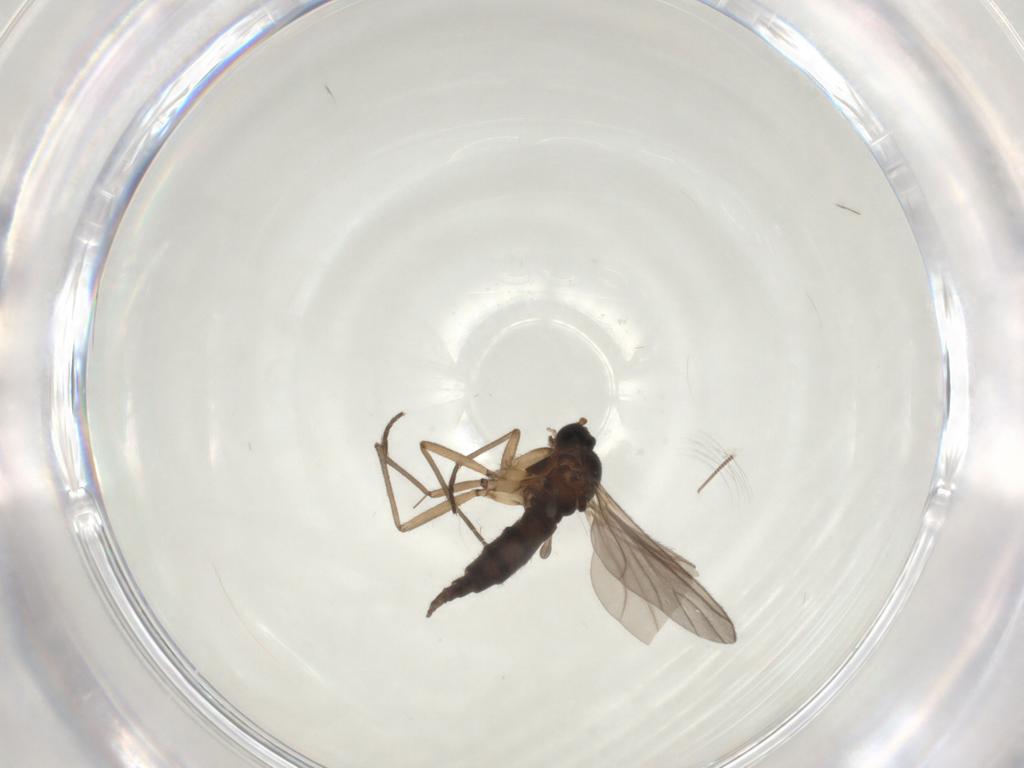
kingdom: Animalia
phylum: Arthropoda
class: Insecta
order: Diptera
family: Sciaridae
